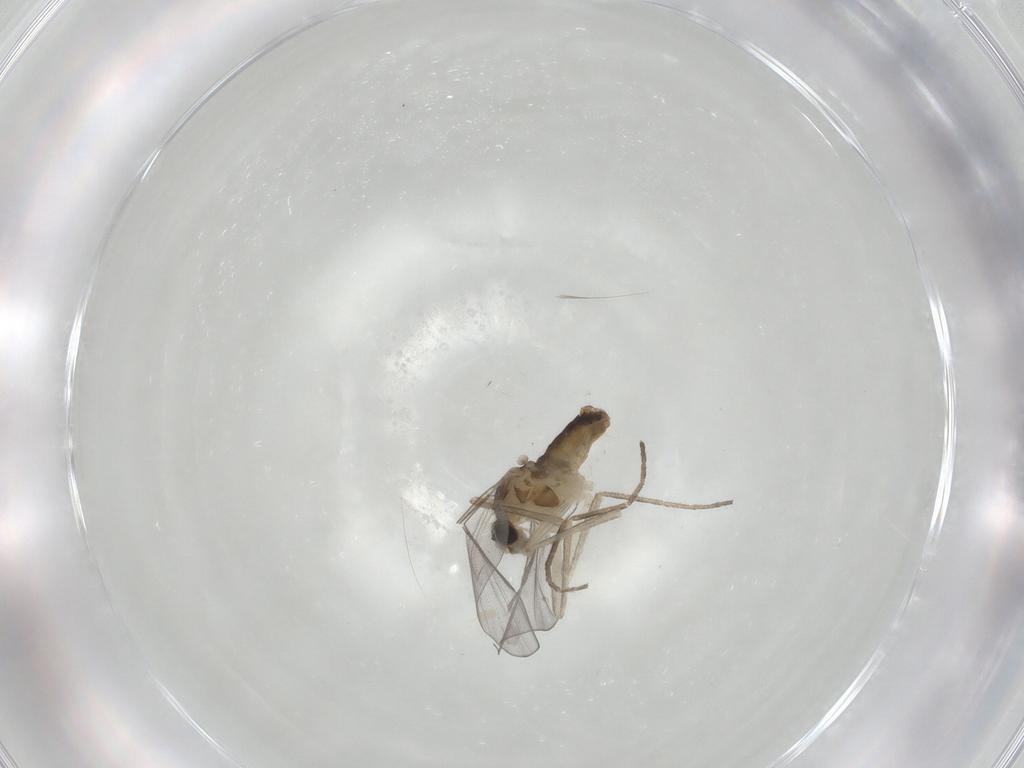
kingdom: Animalia
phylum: Arthropoda
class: Insecta
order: Diptera
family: Cecidomyiidae
